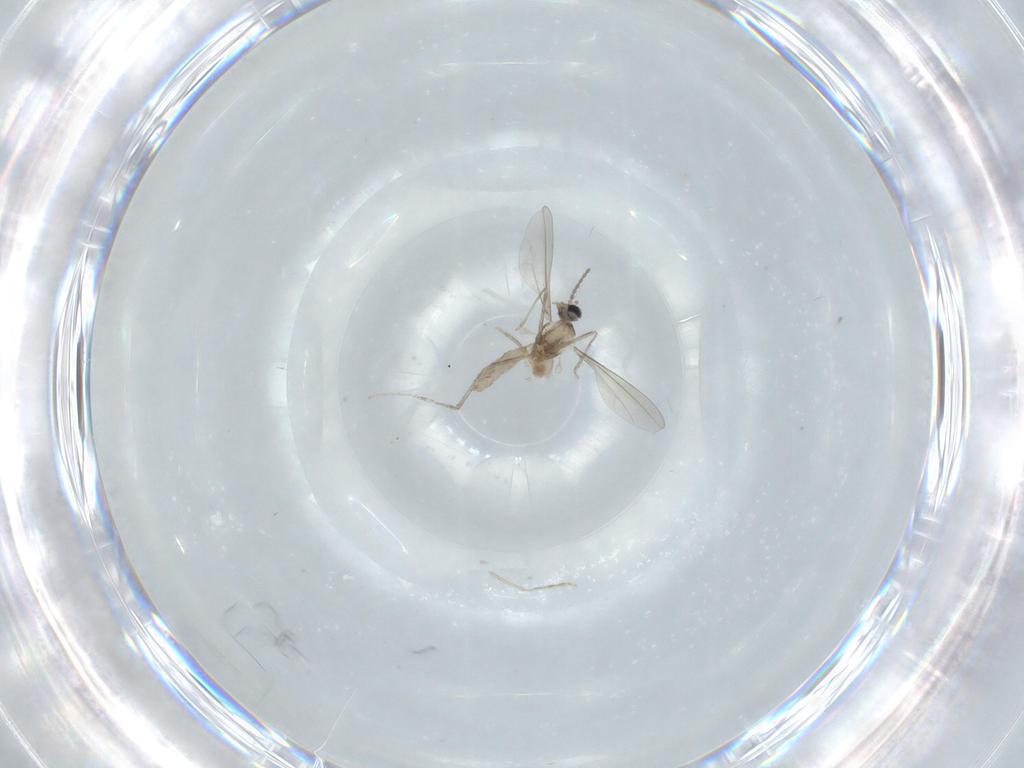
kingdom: Animalia
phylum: Arthropoda
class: Insecta
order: Diptera
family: Cecidomyiidae
